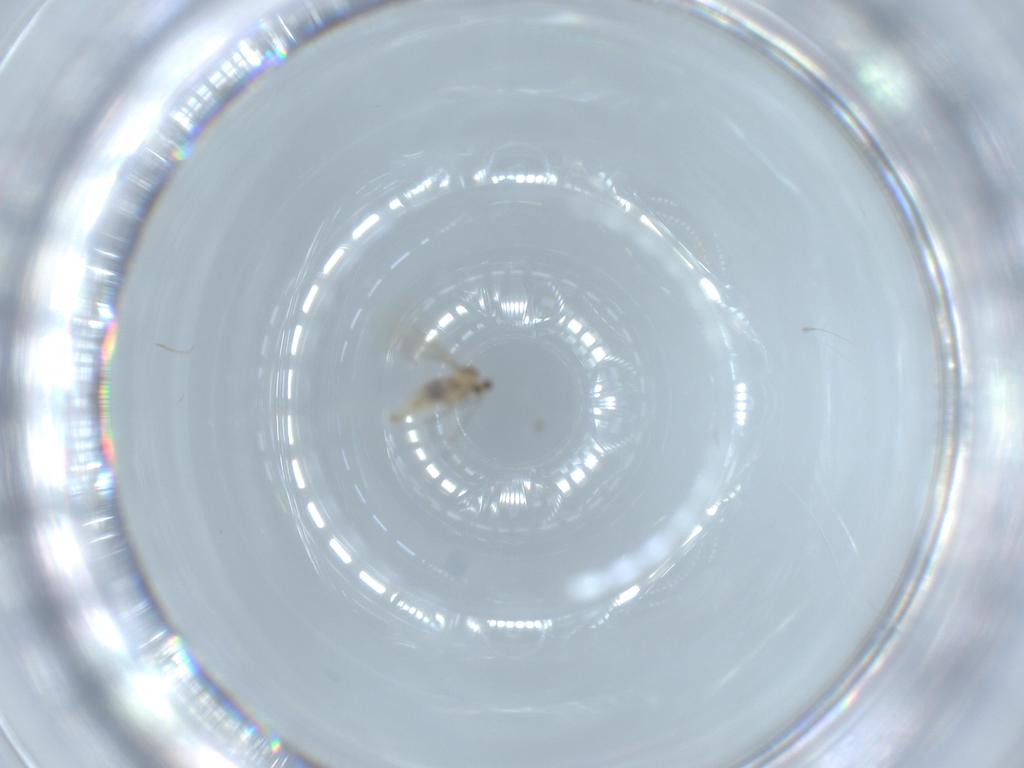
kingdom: Animalia
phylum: Arthropoda
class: Insecta
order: Diptera
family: Cecidomyiidae
